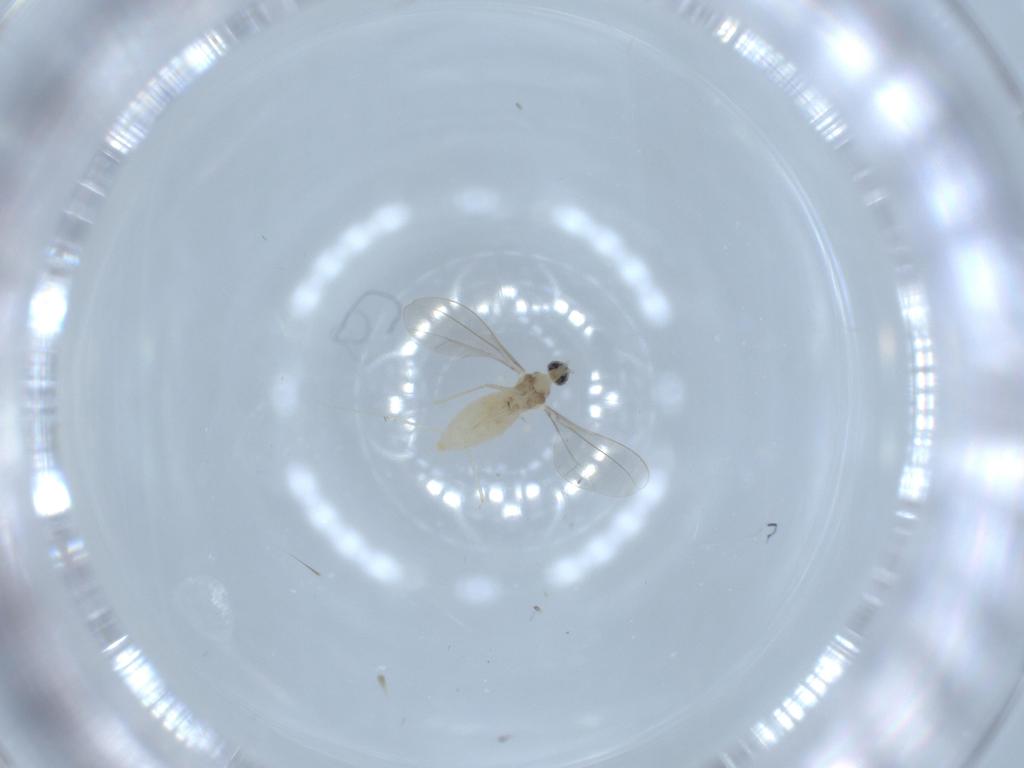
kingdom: Animalia
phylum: Arthropoda
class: Insecta
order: Diptera
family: Cecidomyiidae
